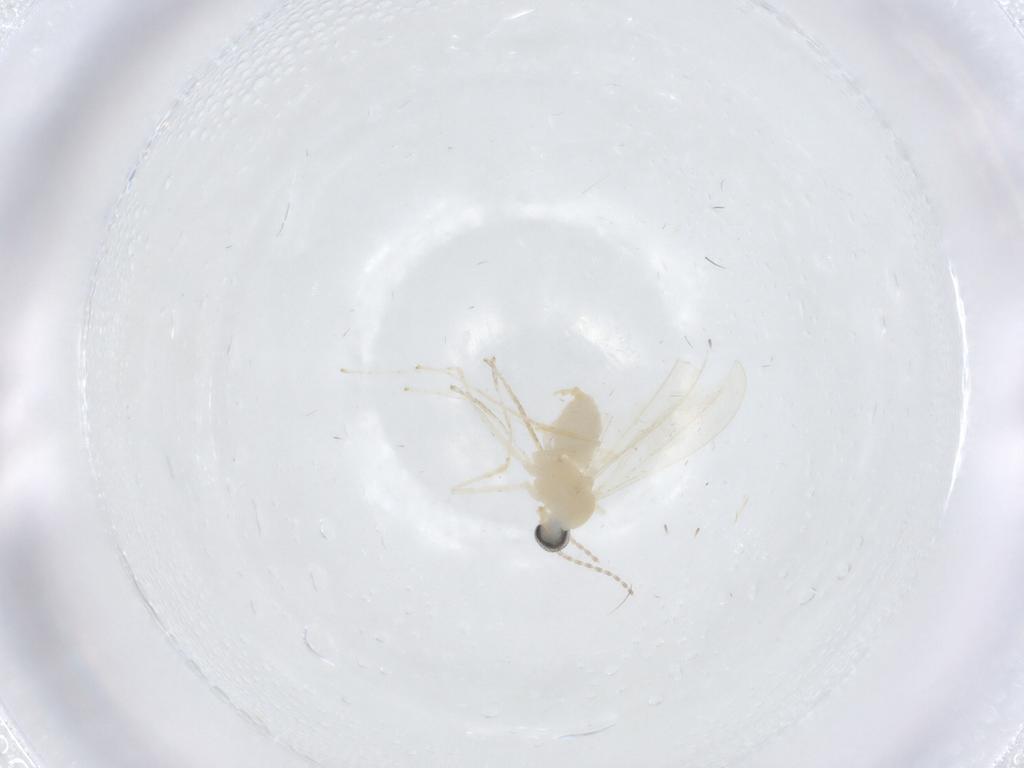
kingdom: Animalia
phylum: Arthropoda
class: Insecta
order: Diptera
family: Cecidomyiidae
